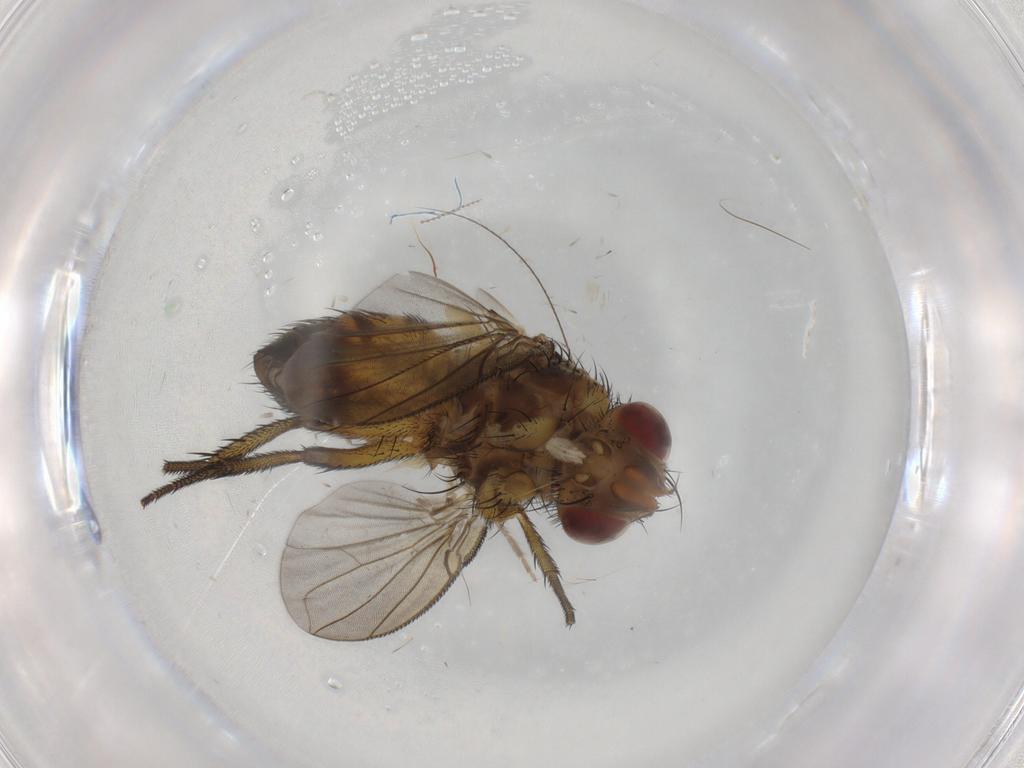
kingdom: Animalia
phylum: Arthropoda
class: Insecta
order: Diptera
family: Tachinidae
